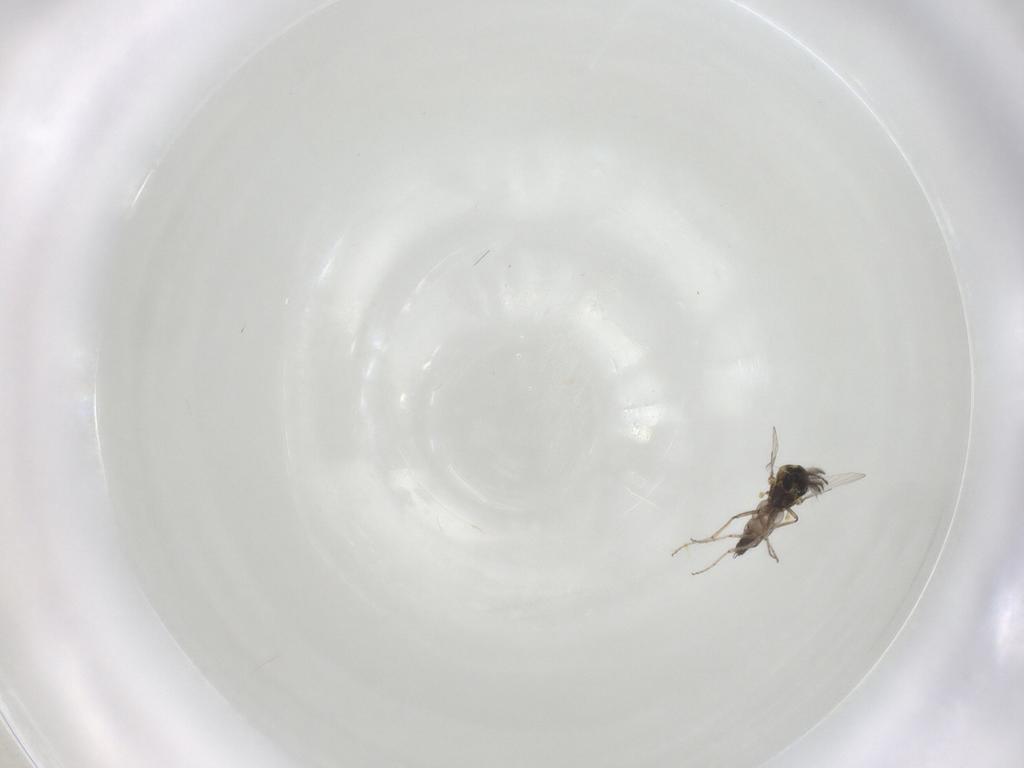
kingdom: Animalia
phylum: Arthropoda
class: Insecta
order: Diptera
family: Ceratopogonidae
